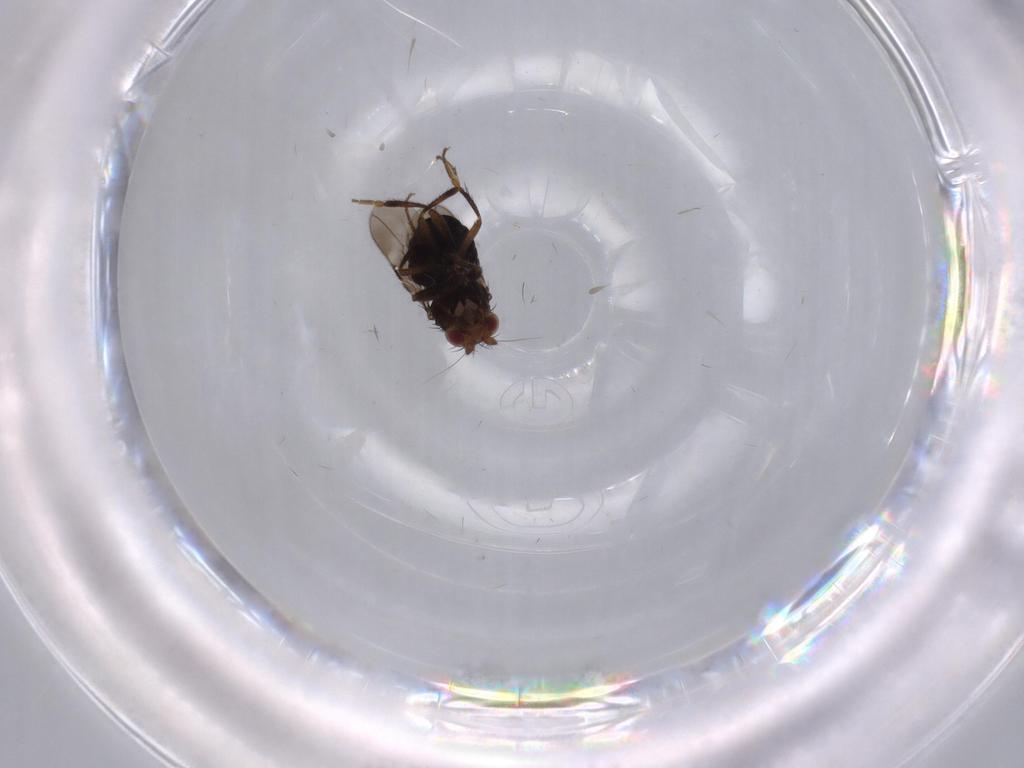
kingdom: Animalia
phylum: Arthropoda
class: Insecta
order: Diptera
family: Cecidomyiidae
